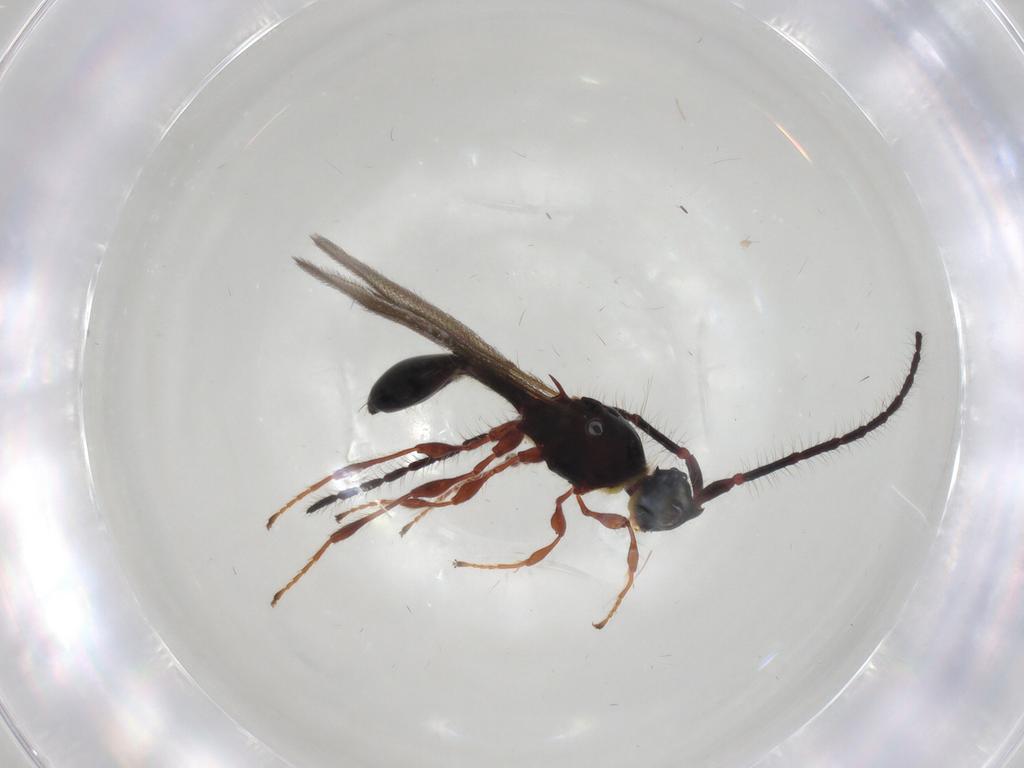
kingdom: Animalia
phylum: Arthropoda
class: Insecta
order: Hymenoptera
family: Diapriidae
